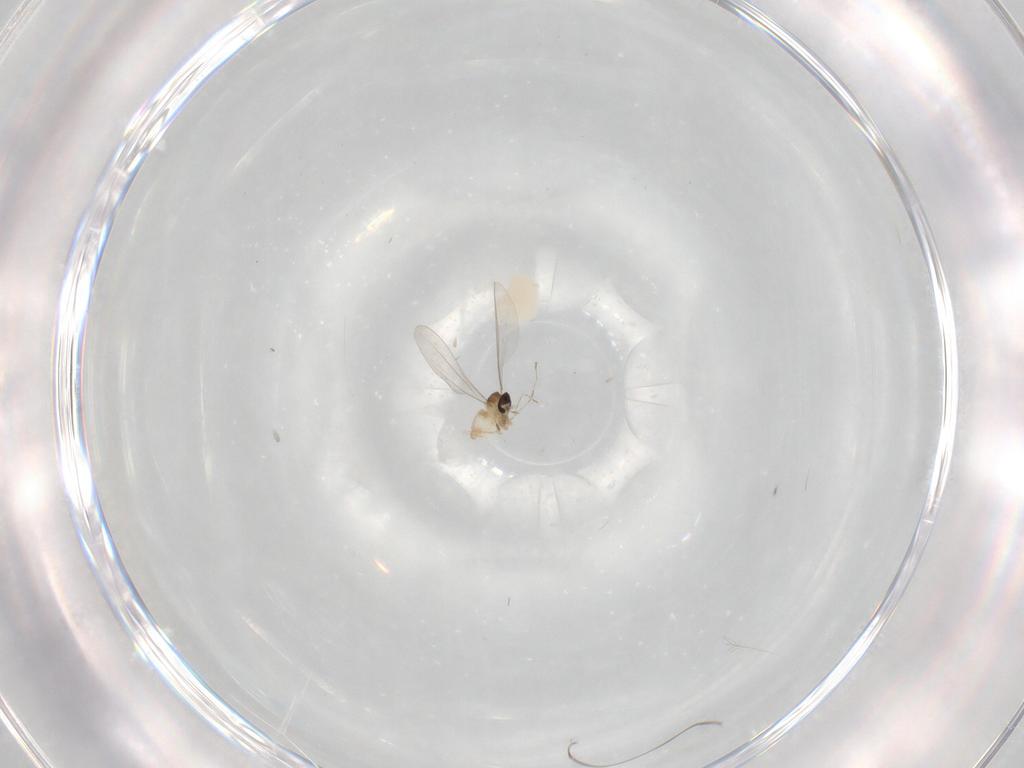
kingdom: Animalia
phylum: Arthropoda
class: Insecta
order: Diptera
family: Cecidomyiidae
